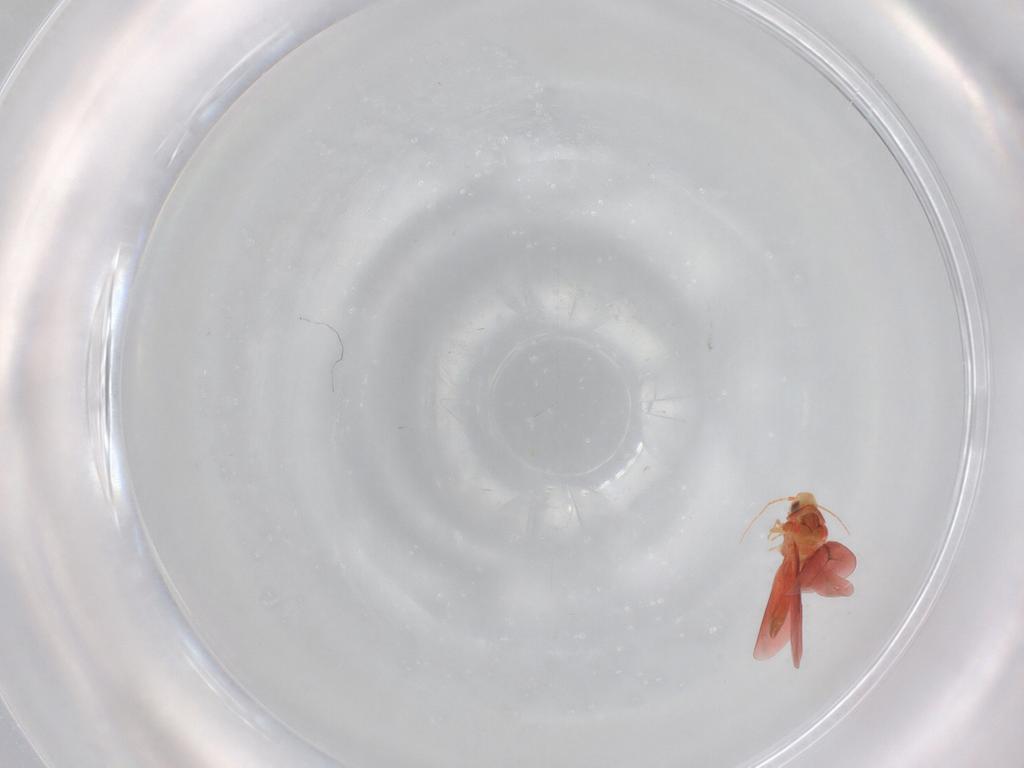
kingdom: Animalia
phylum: Arthropoda
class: Insecta
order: Hemiptera
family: Aleyrodidae
